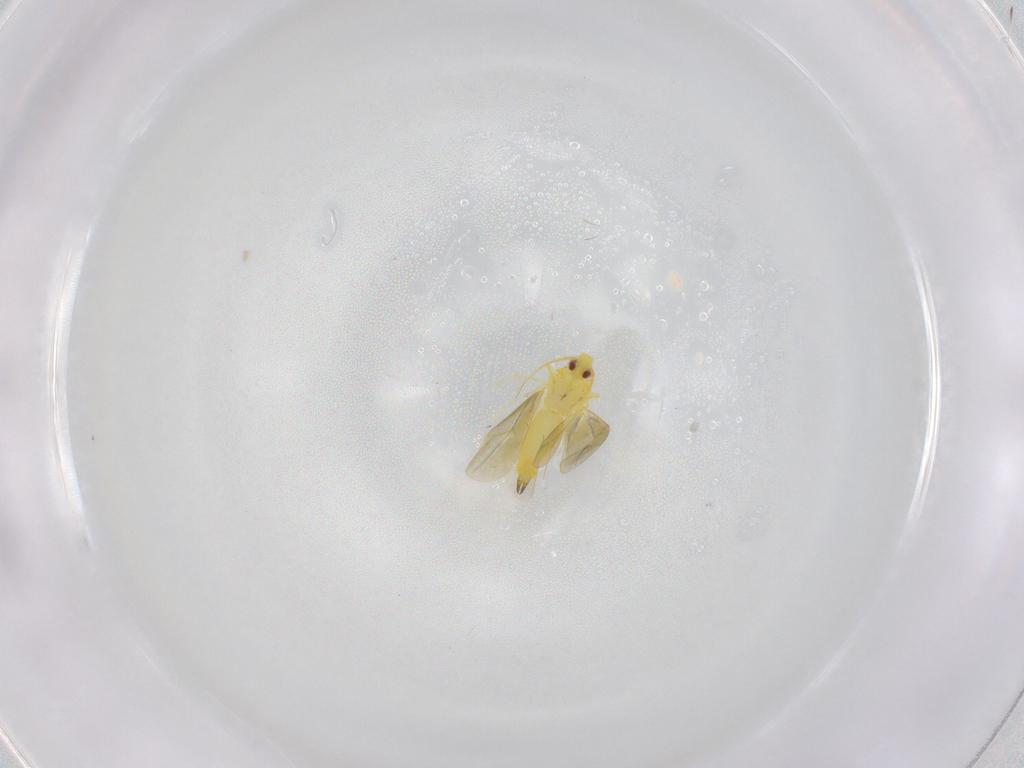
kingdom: Animalia
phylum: Arthropoda
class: Insecta
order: Hemiptera
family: Aleyrodidae
